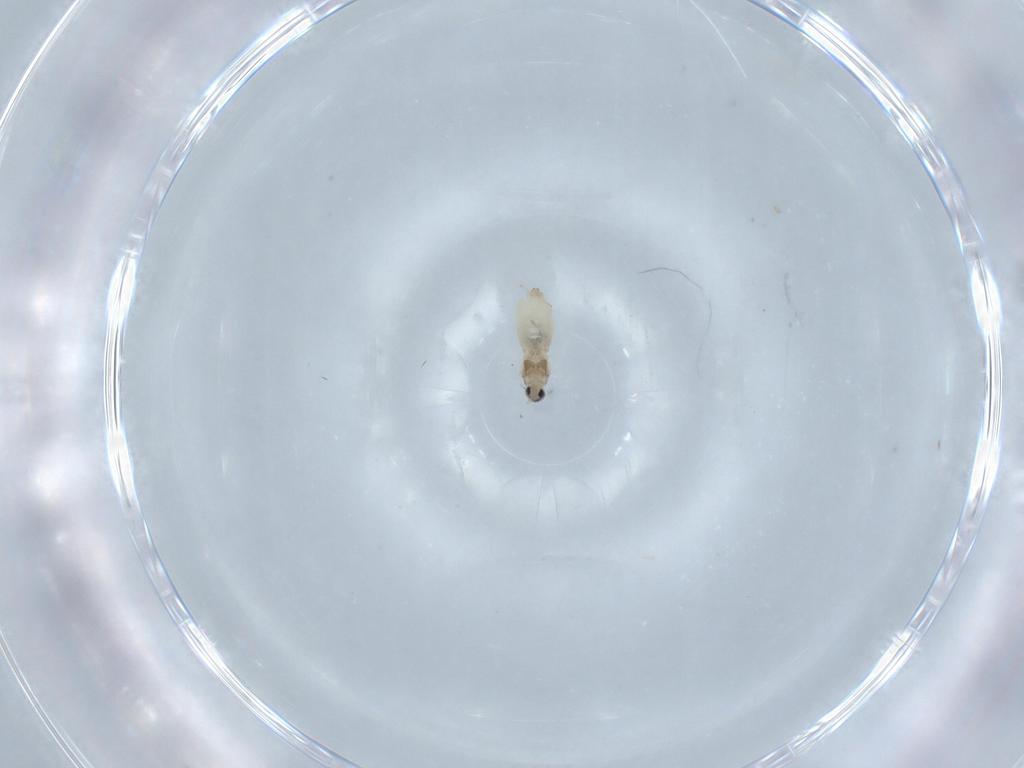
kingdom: Animalia
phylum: Arthropoda
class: Insecta
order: Diptera
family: Cecidomyiidae
